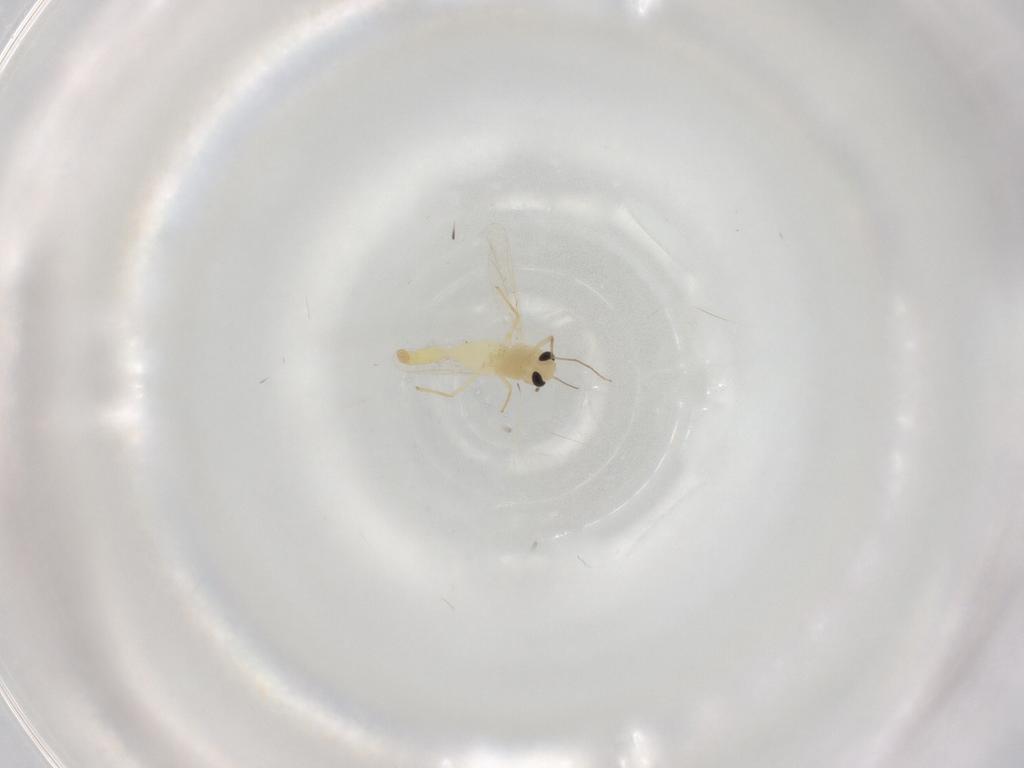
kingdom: Animalia
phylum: Arthropoda
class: Insecta
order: Diptera
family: Chironomidae
